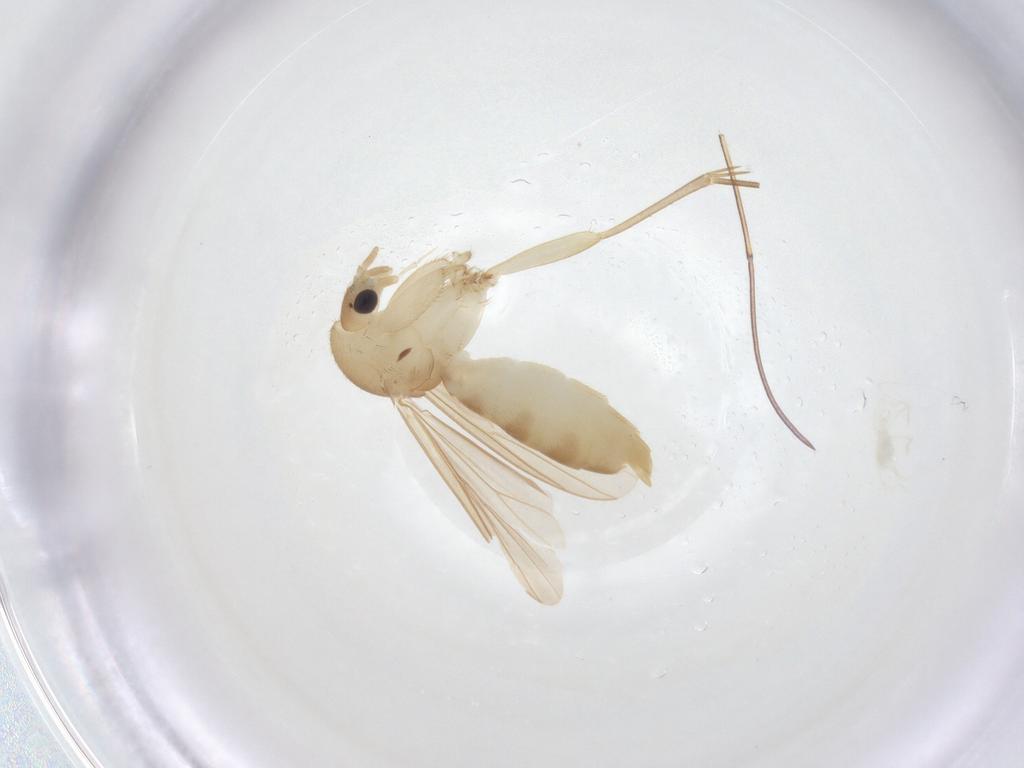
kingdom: Animalia
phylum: Arthropoda
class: Insecta
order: Diptera
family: Mycetophilidae
